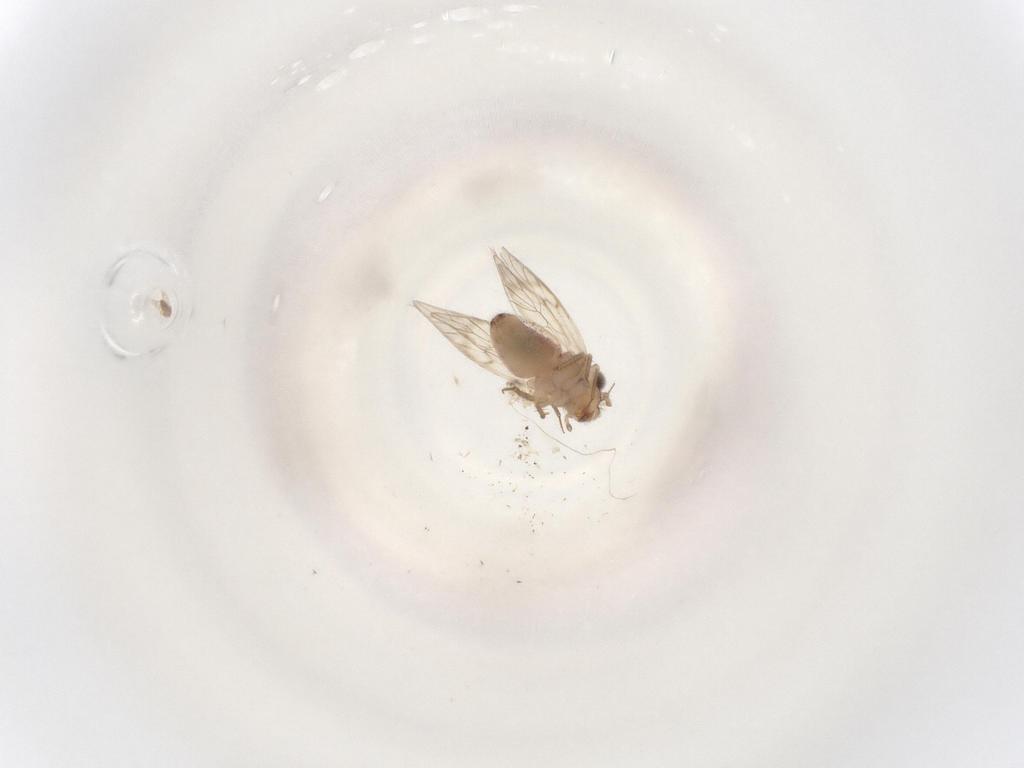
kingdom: Animalia
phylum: Arthropoda
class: Insecta
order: Psocodea
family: Lepidopsocidae
